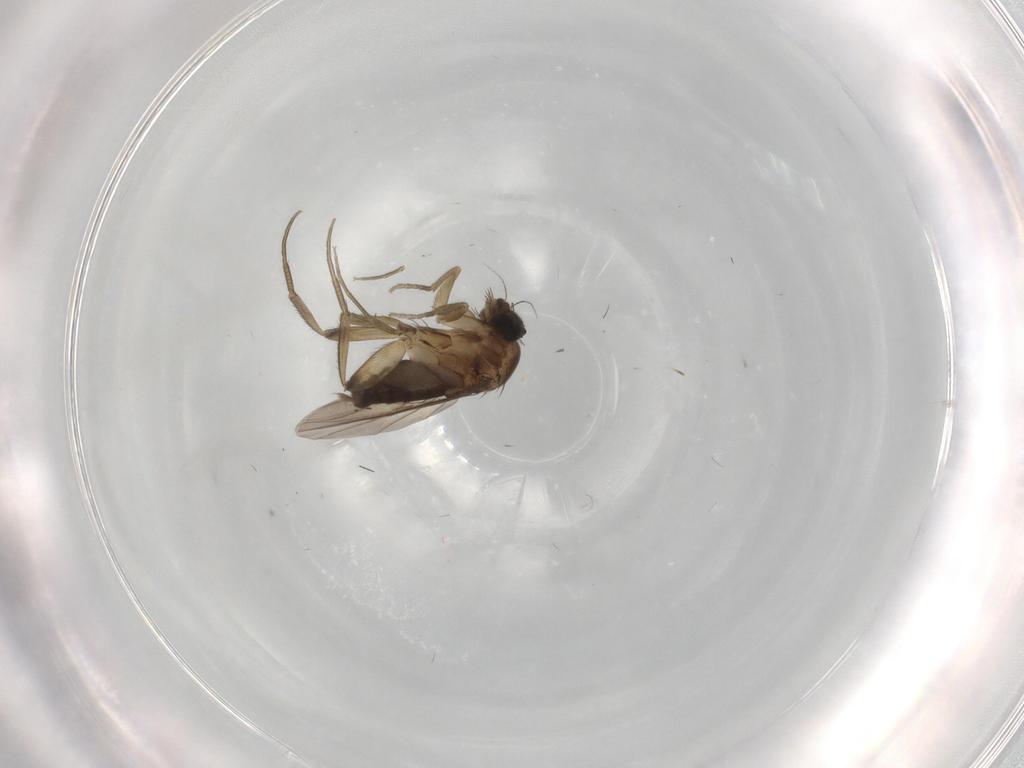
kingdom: Animalia
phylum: Arthropoda
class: Insecta
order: Diptera
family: Phoridae
